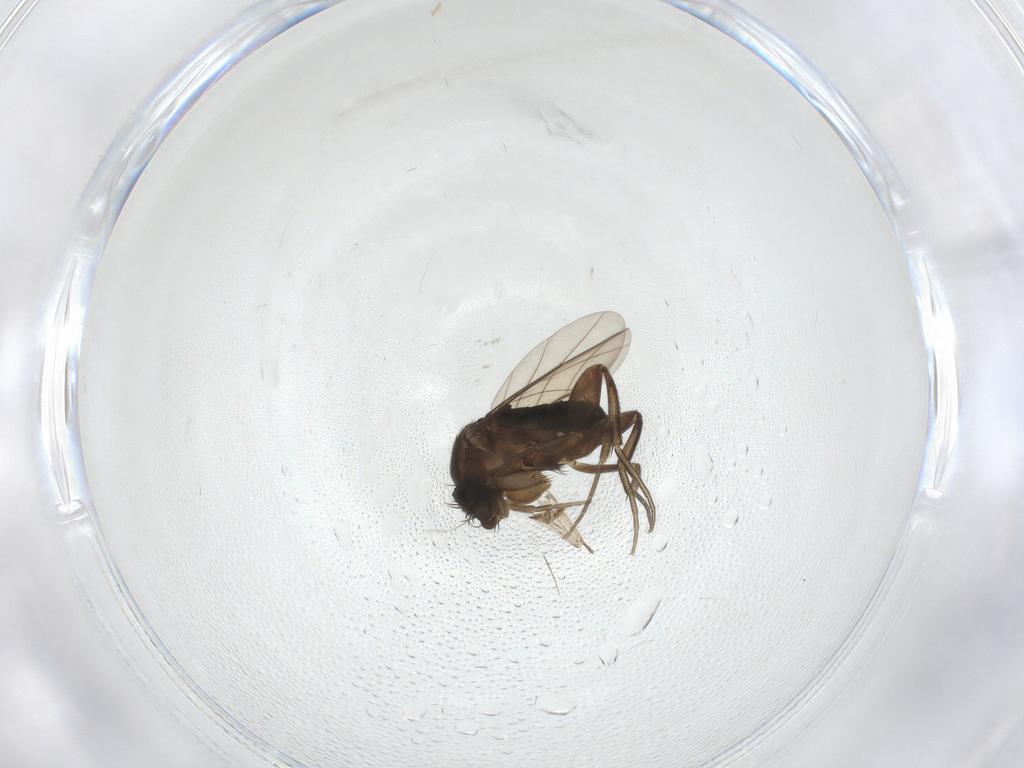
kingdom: Animalia
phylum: Arthropoda
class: Insecta
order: Diptera
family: Phoridae
